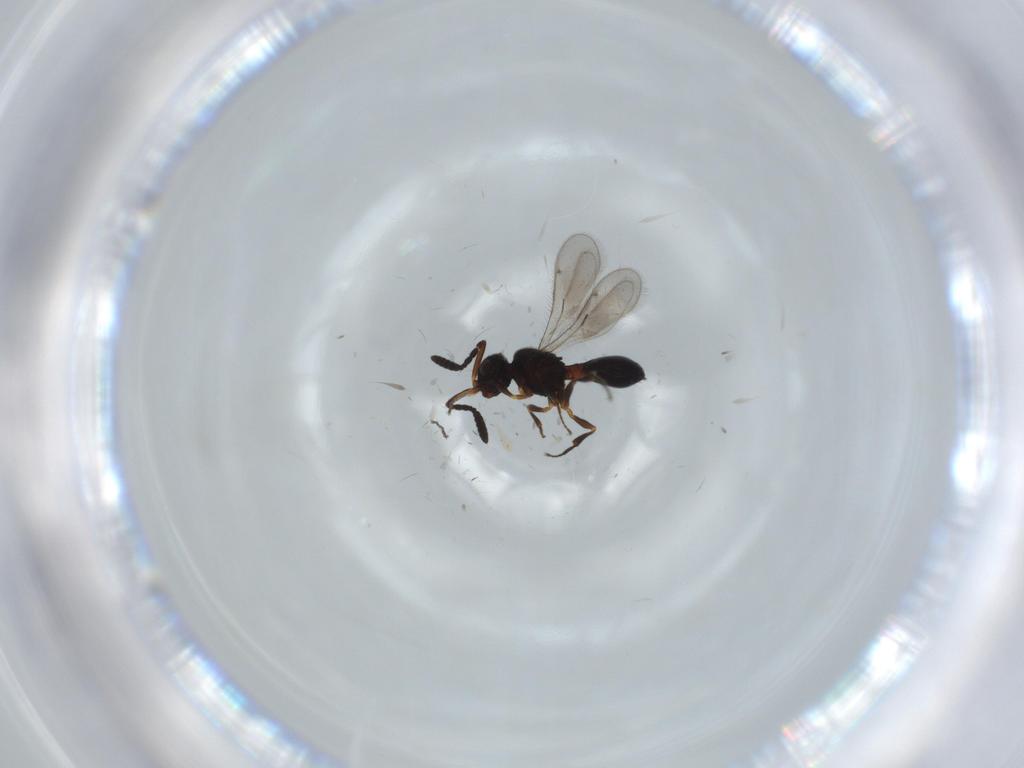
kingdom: Animalia
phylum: Arthropoda
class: Insecta
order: Hymenoptera
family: Scelionidae
